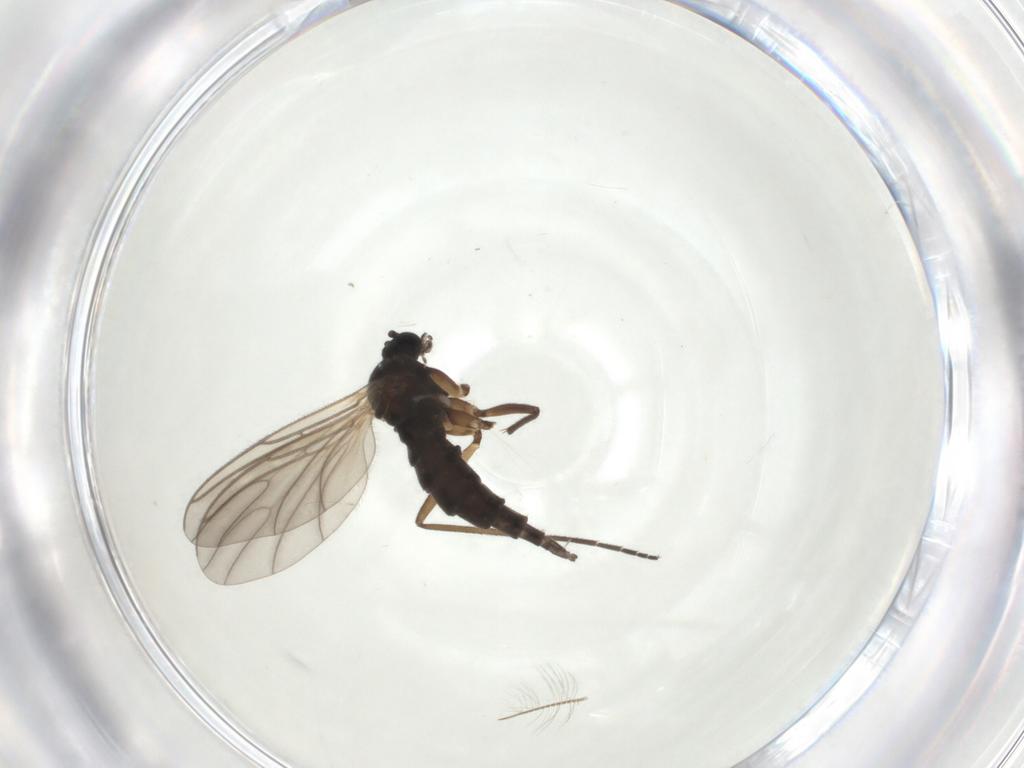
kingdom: Animalia
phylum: Arthropoda
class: Insecta
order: Diptera
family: Sciaridae
